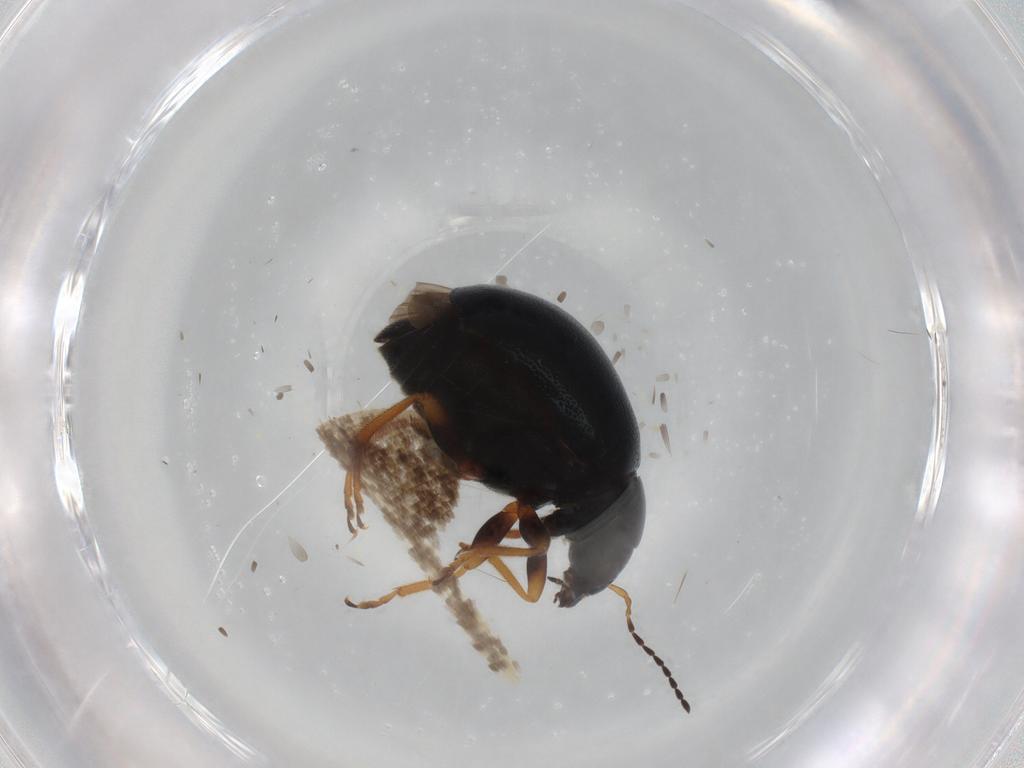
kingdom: Animalia
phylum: Arthropoda
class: Insecta
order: Coleoptera
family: Chrysomelidae
